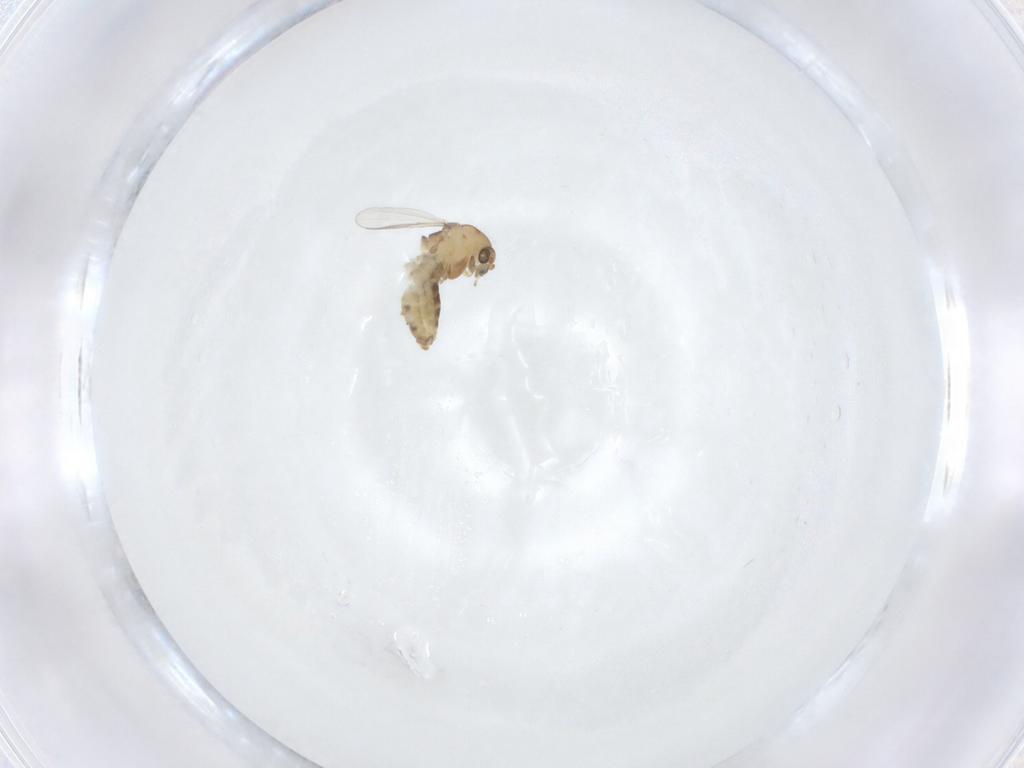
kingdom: Animalia
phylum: Arthropoda
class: Insecta
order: Diptera
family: Chironomidae
